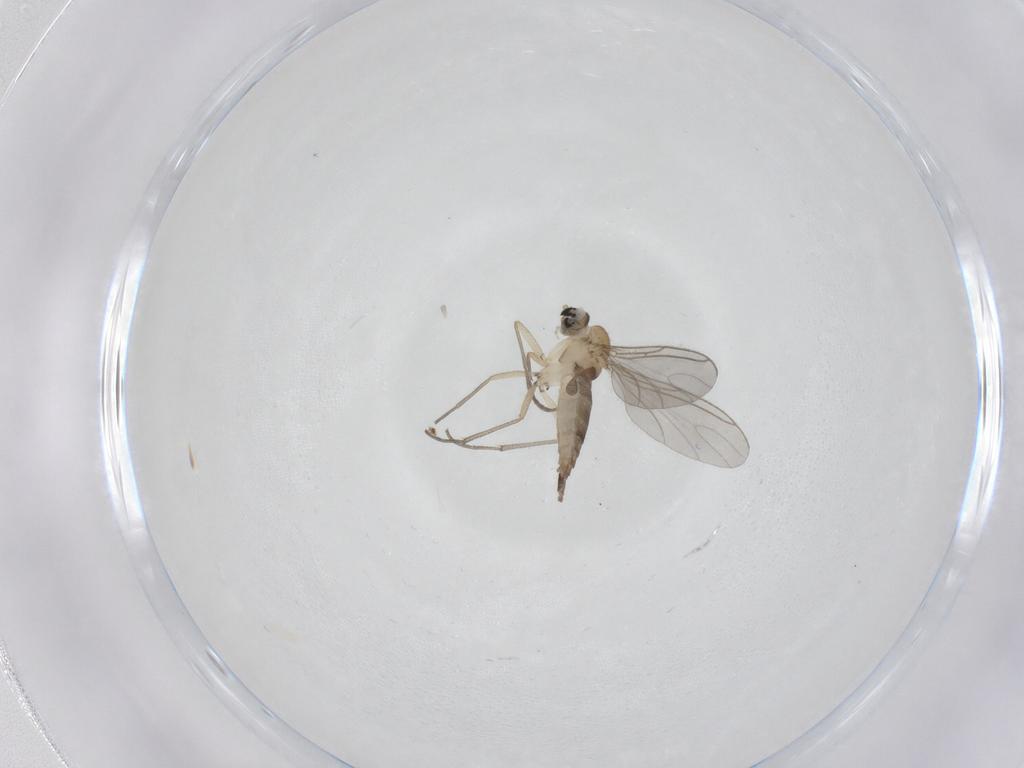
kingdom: Animalia
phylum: Arthropoda
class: Insecta
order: Diptera
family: Sciaridae
